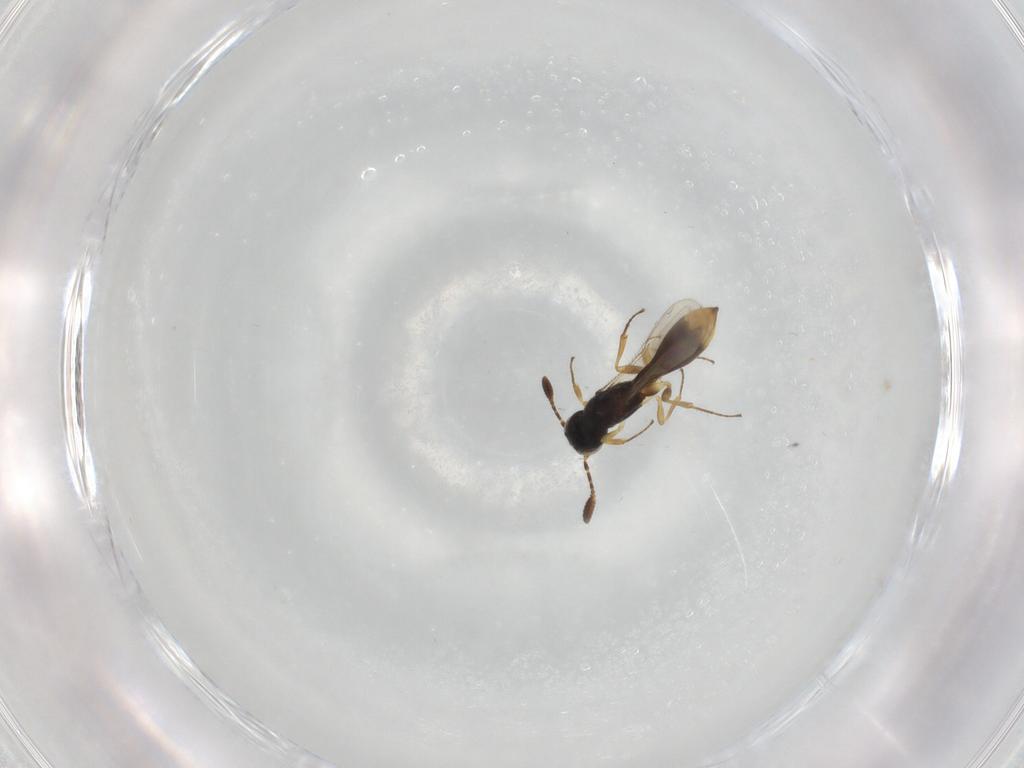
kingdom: Animalia
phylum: Arthropoda
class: Insecta
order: Hymenoptera
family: Scelionidae
